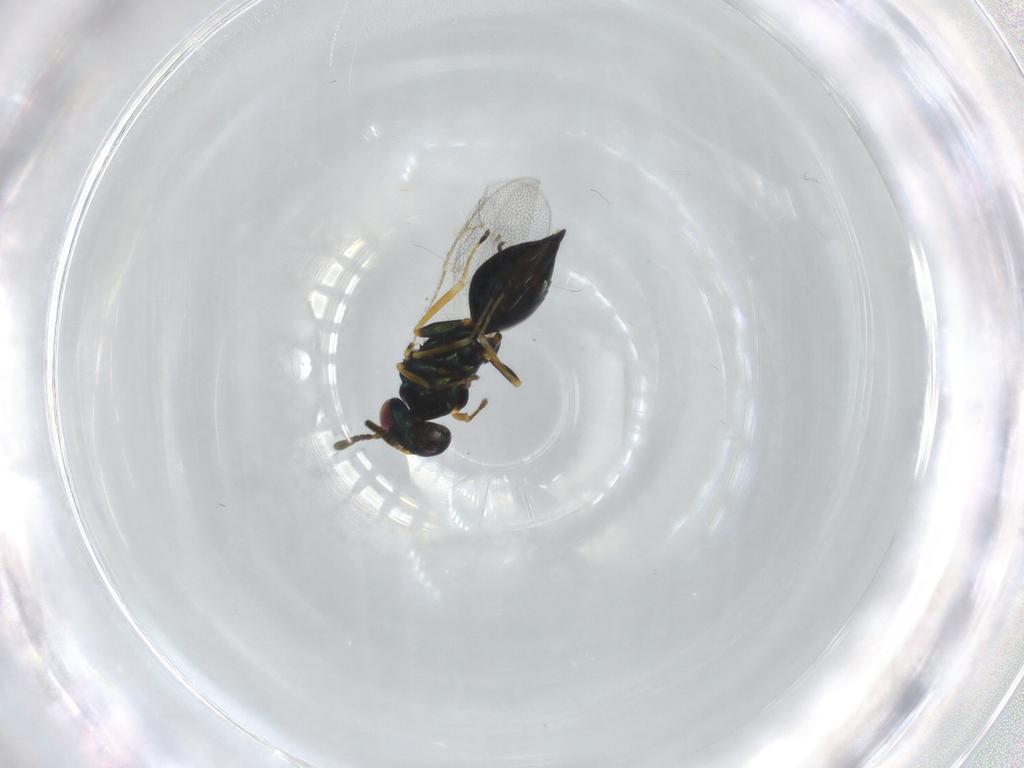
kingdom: Animalia
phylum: Arthropoda
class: Insecta
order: Hymenoptera
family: Pteromalidae
